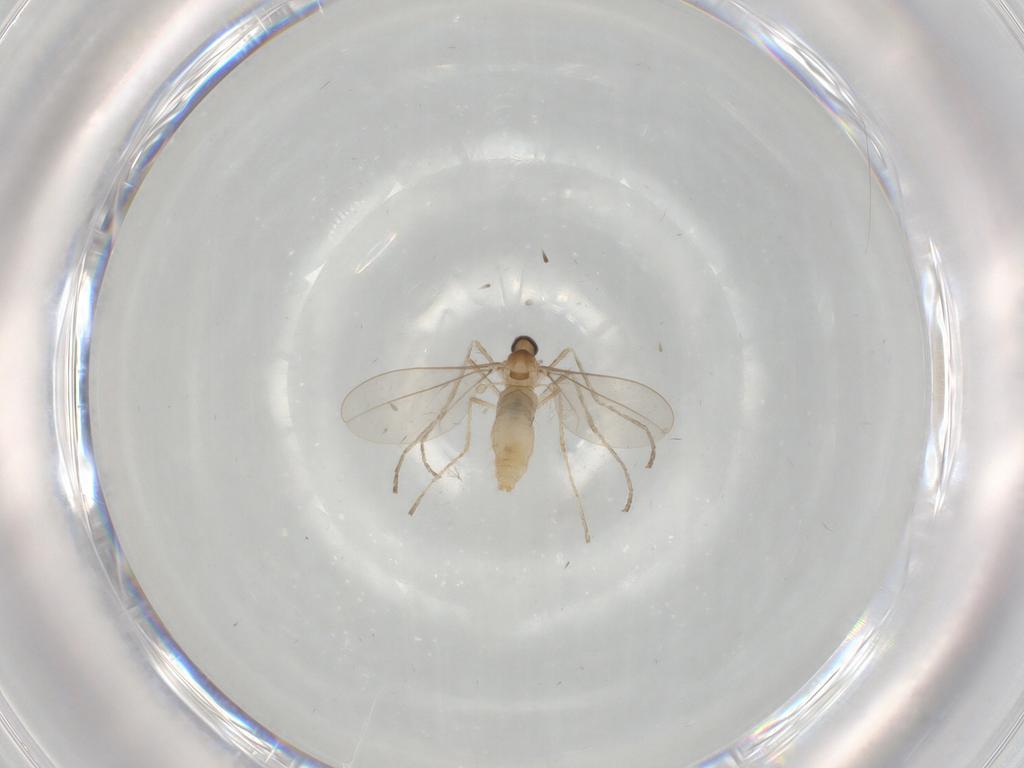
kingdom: Animalia
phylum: Arthropoda
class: Insecta
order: Diptera
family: Cecidomyiidae
